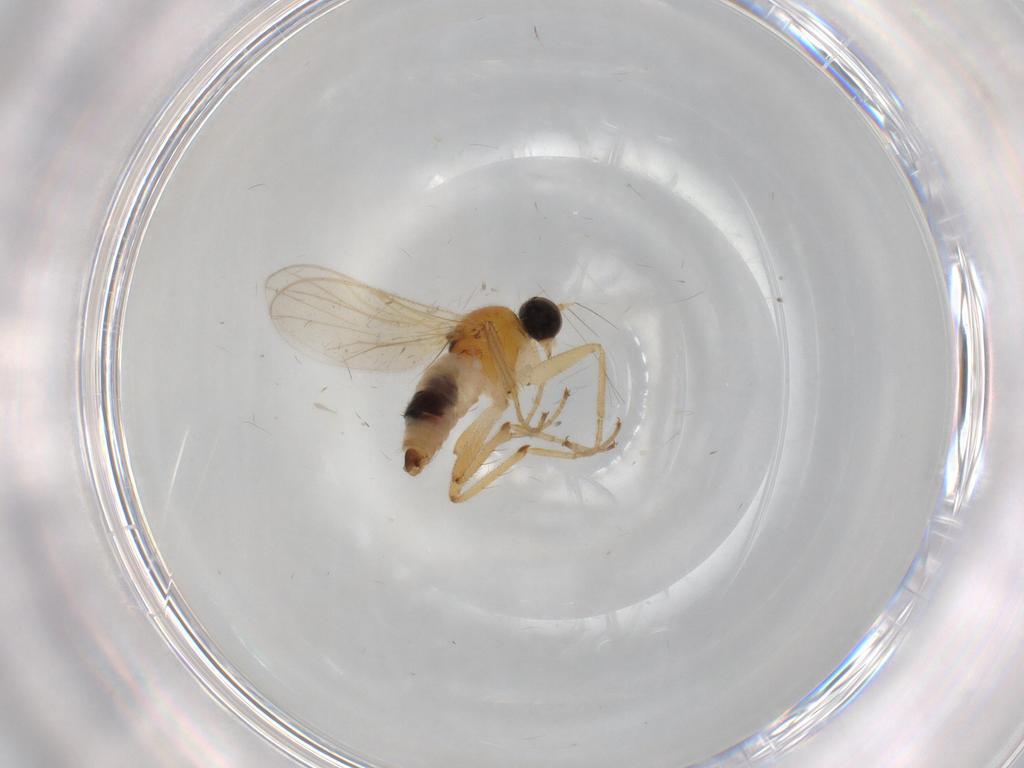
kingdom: Animalia
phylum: Arthropoda
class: Insecta
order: Diptera
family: Hybotidae
